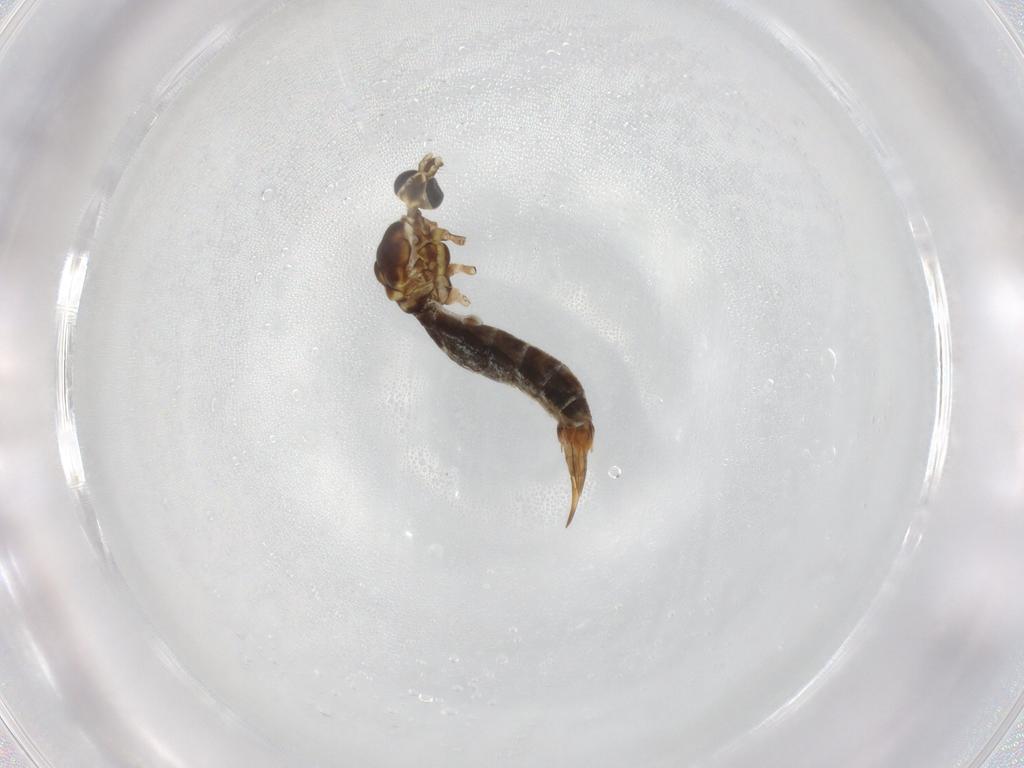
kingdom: Animalia
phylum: Arthropoda
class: Insecta
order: Diptera
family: Limoniidae
